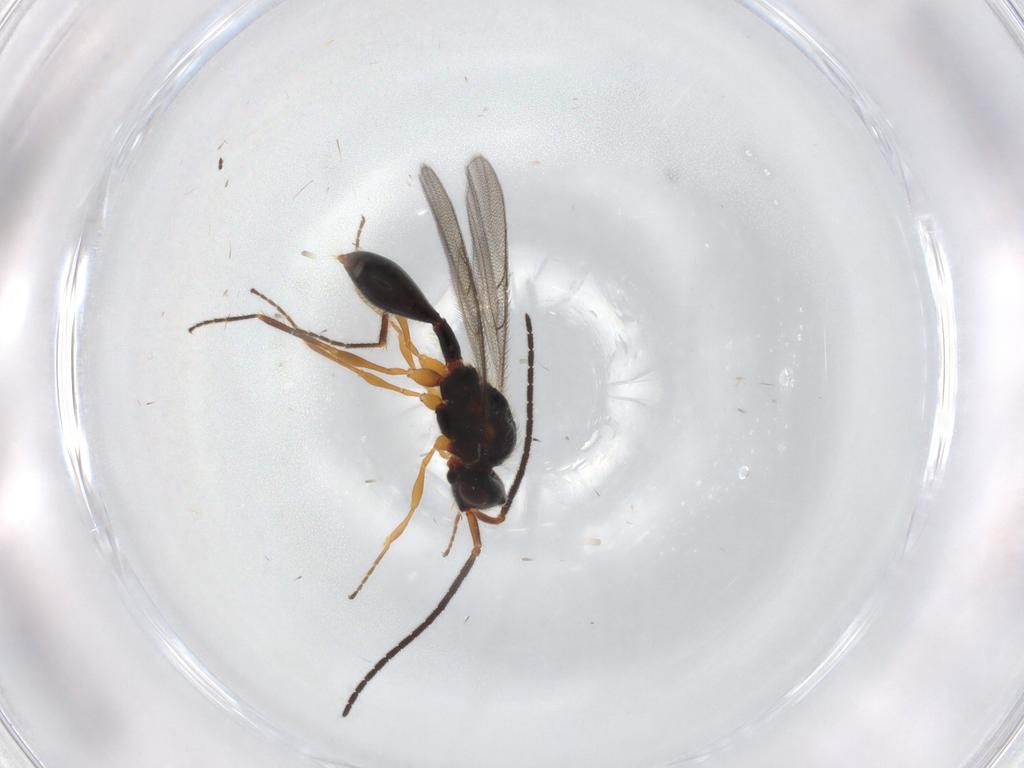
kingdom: Animalia
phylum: Arthropoda
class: Insecta
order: Hymenoptera
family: Scelionidae
